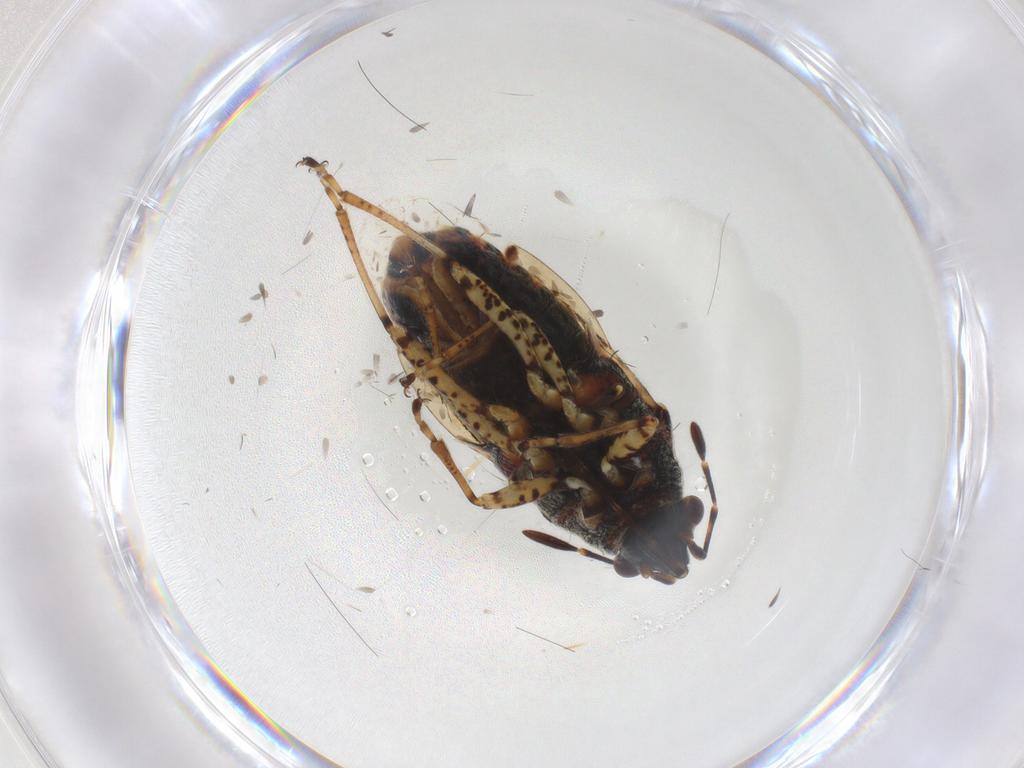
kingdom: Animalia
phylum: Arthropoda
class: Insecta
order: Hemiptera
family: Lygaeidae
